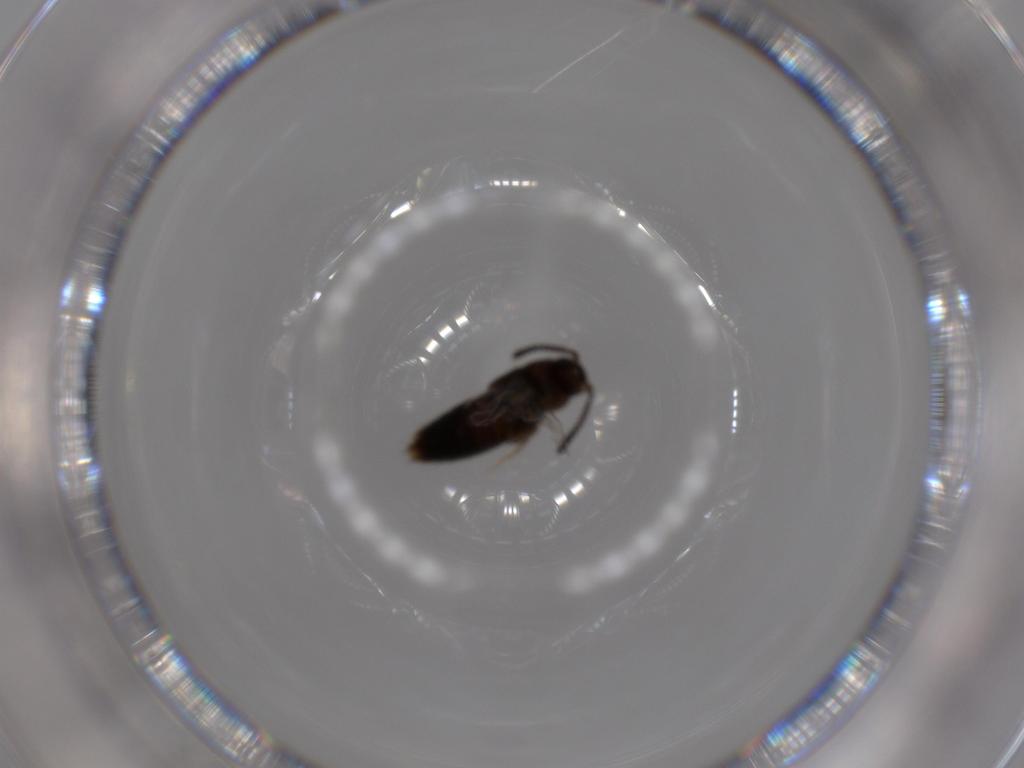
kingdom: Animalia
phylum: Arthropoda
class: Insecta
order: Coleoptera
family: Staphylinidae
